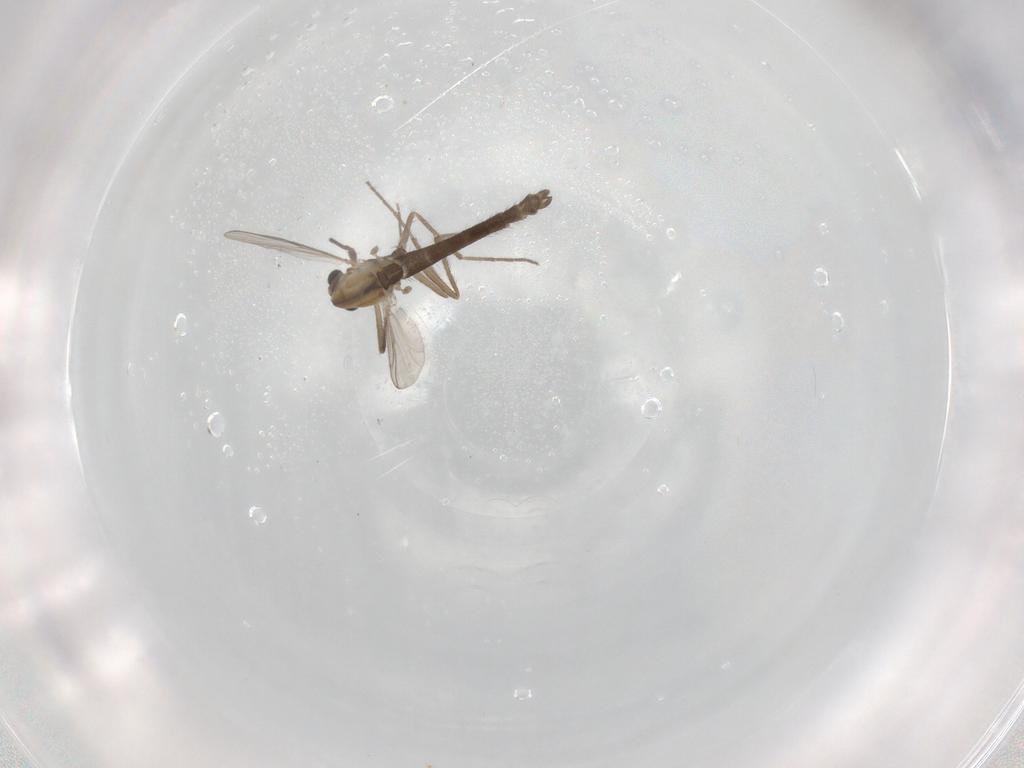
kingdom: Animalia
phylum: Arthropoda
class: Insecta
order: Diptera
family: Chironomidae
